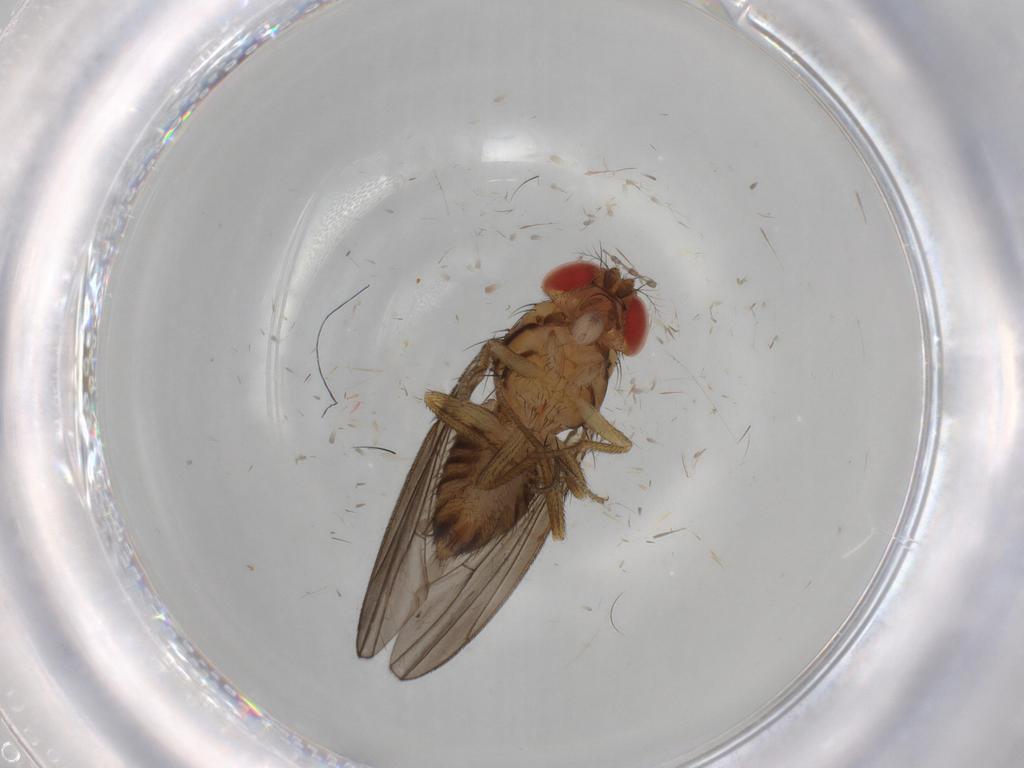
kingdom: Animalia
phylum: Arthropoda
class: Insecta
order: Diptera
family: Drosophilidae
